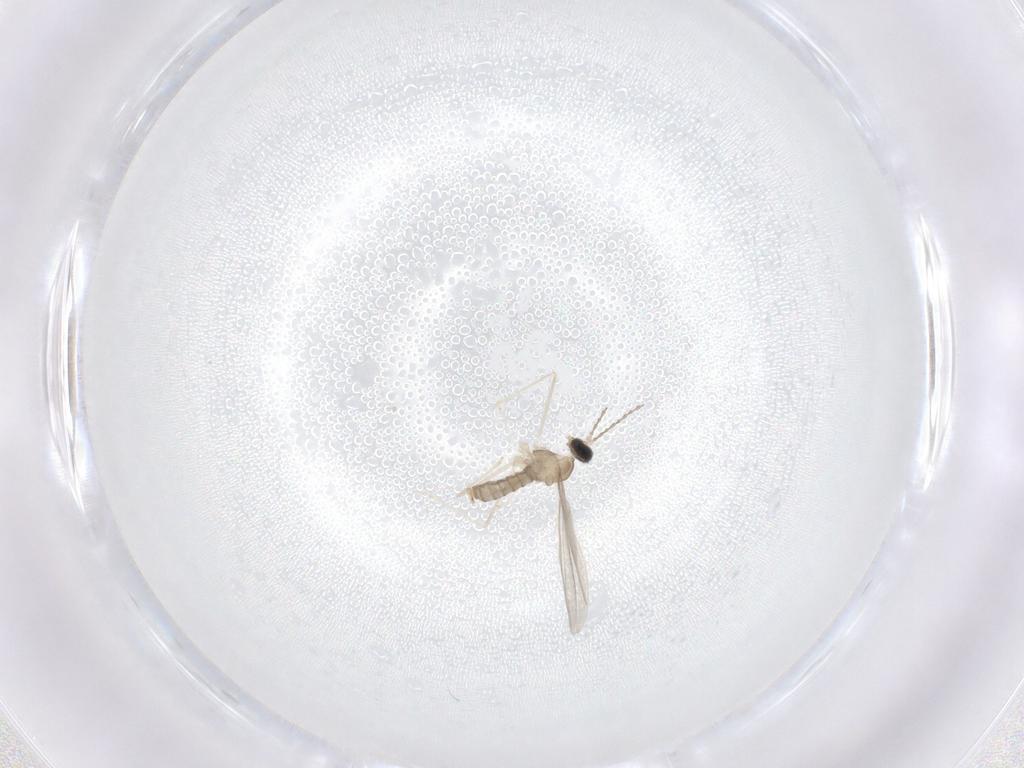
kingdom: Animalia
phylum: Arthropoda
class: Insecta
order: Diptera
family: Cecidomyiidae
